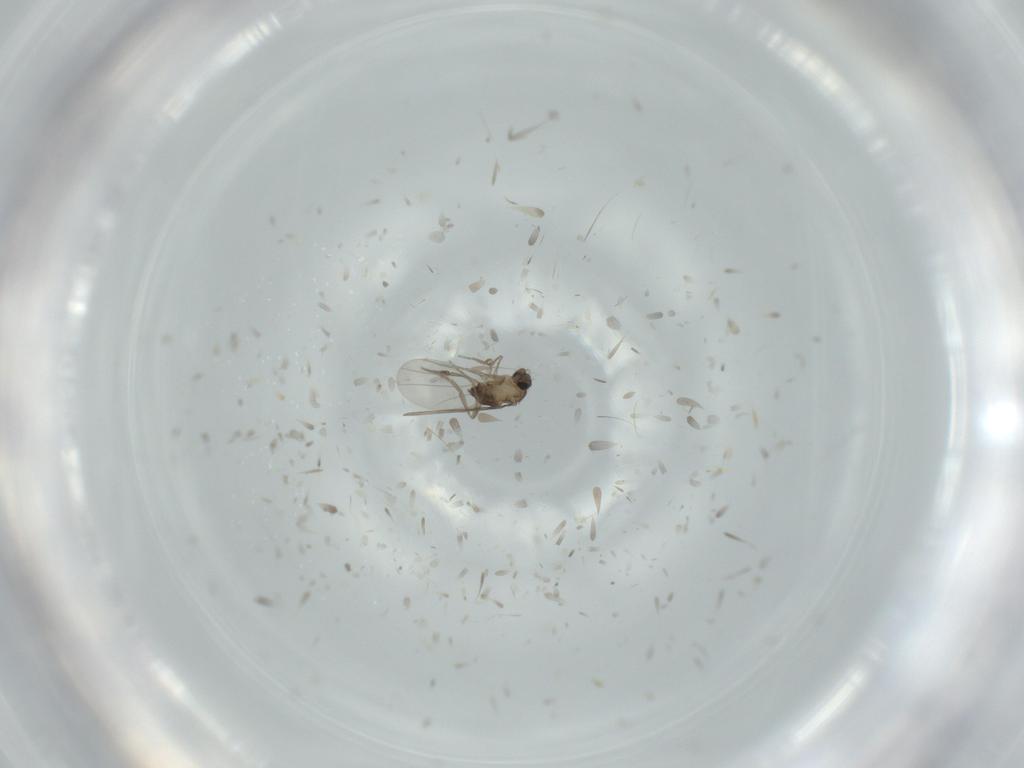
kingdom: Animalia
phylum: Arthropoda
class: Insecta
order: Diptera
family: Phoridae
